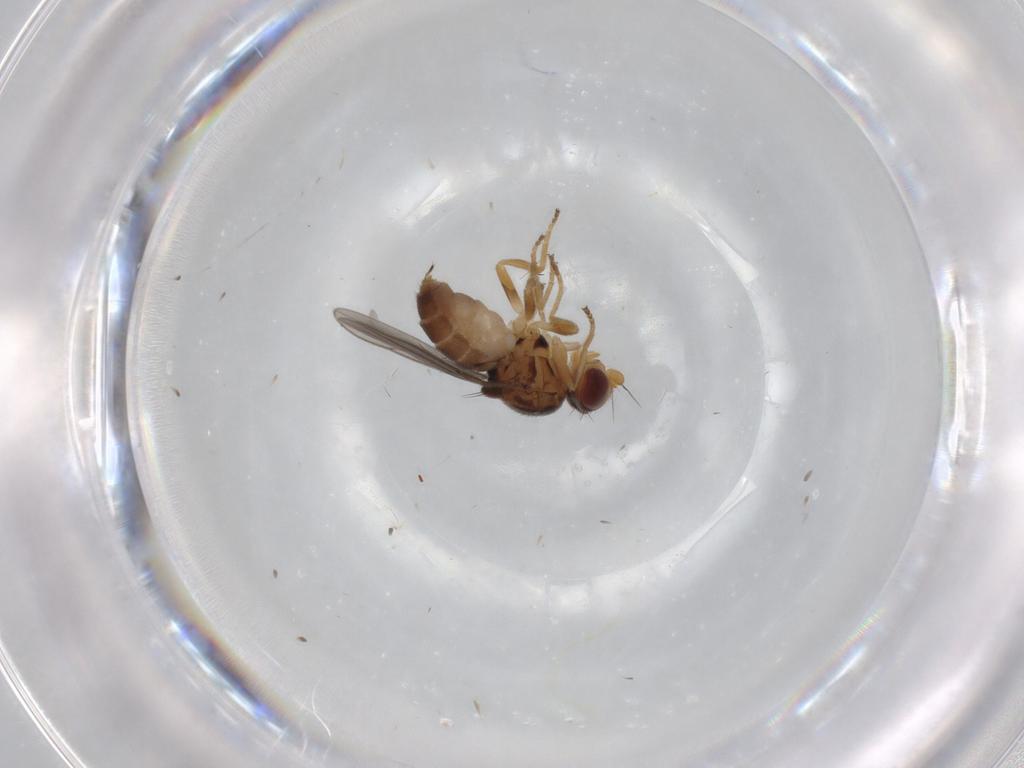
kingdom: Animalia
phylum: Arthropoda
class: Insecta
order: Diptera
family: Chloropidae
